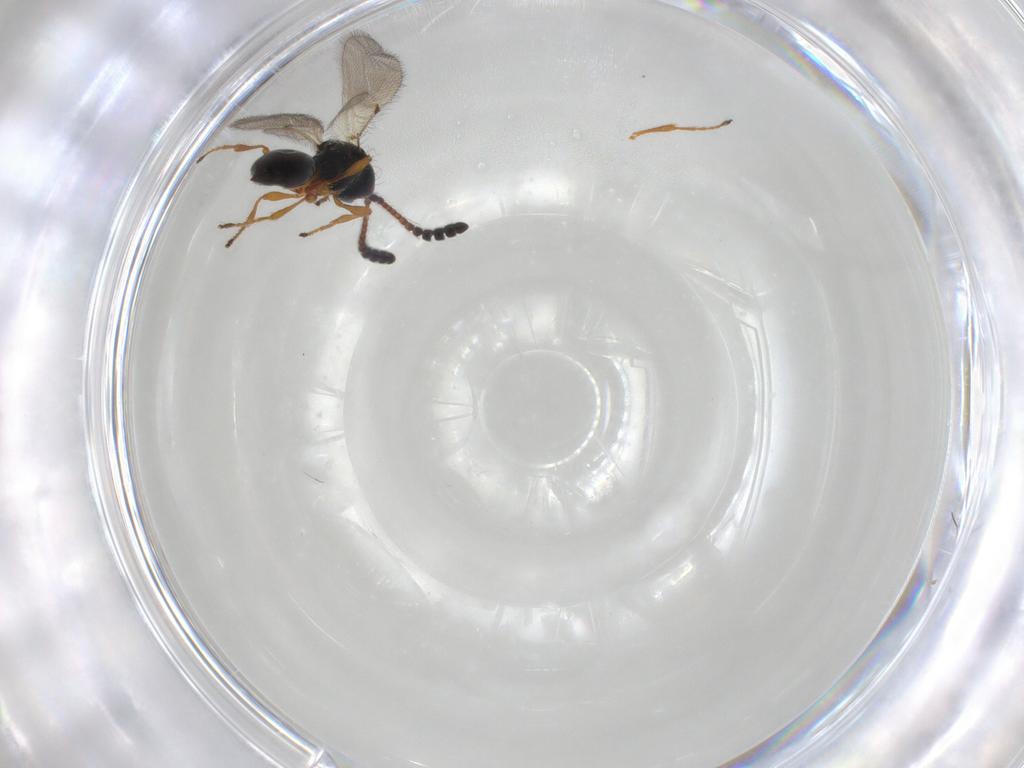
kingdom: Animalia
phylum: Arthropoda
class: Insecta
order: Hymenoptera
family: Diapriidae
